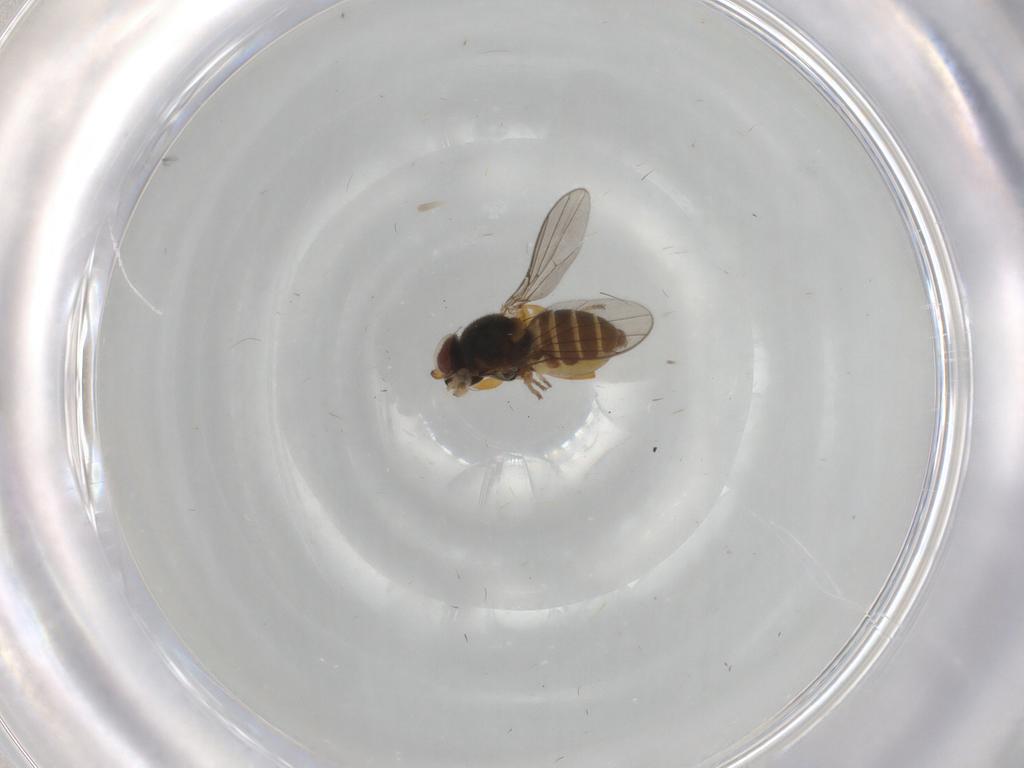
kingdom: Animalia
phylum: Arthropoda
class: Insecta
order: Diptera
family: Chloropidae
